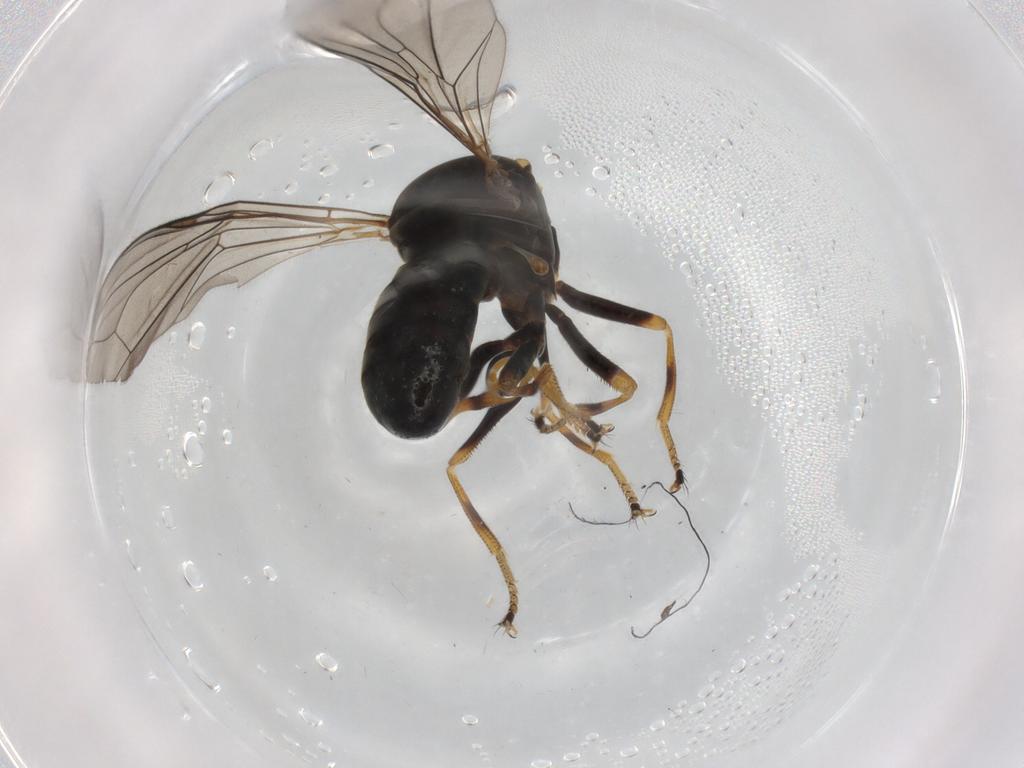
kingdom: Animalia
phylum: Arthropoda
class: Insecta
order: Diptera
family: Pipunculidae
